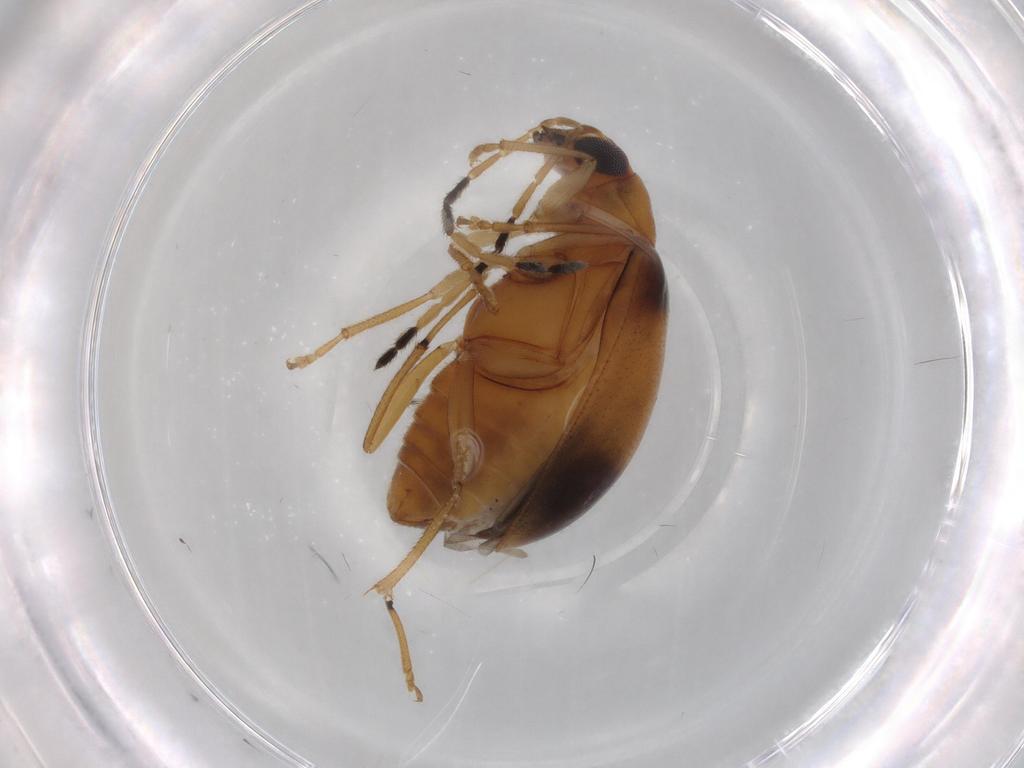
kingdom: Animalia
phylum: Arthropoda
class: Insecta
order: Coleoptera
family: Chrysomelidae
